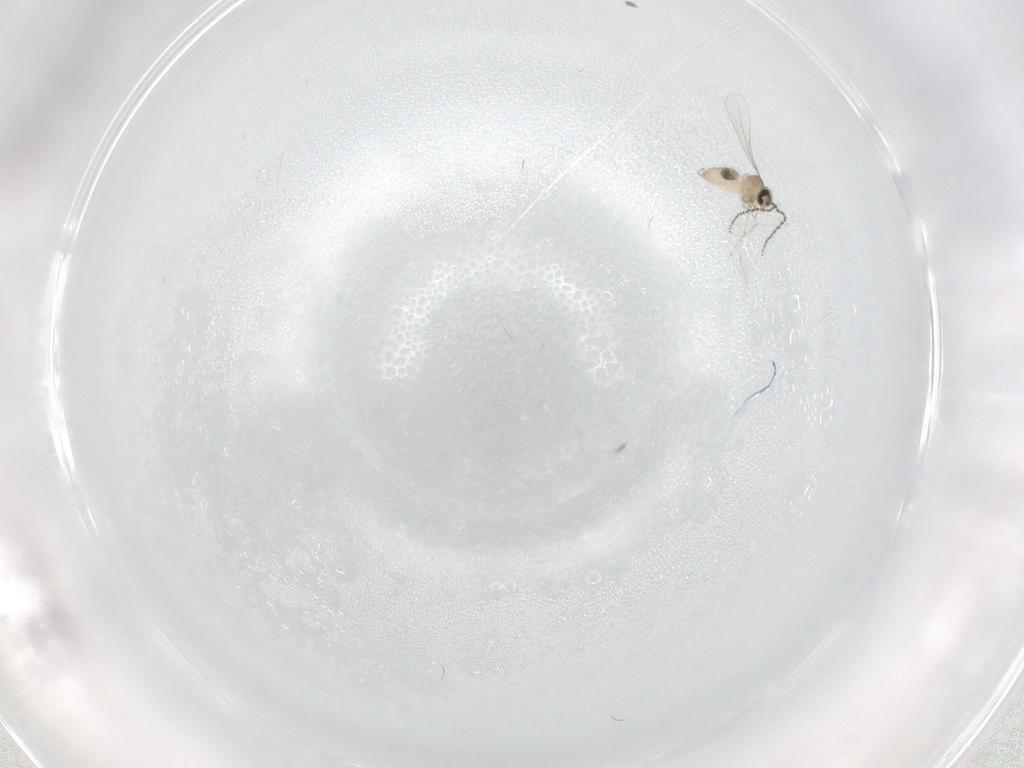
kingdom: Animalia
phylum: Arthropoda
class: Insecta
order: Diptera
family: Cecidomyiidae
